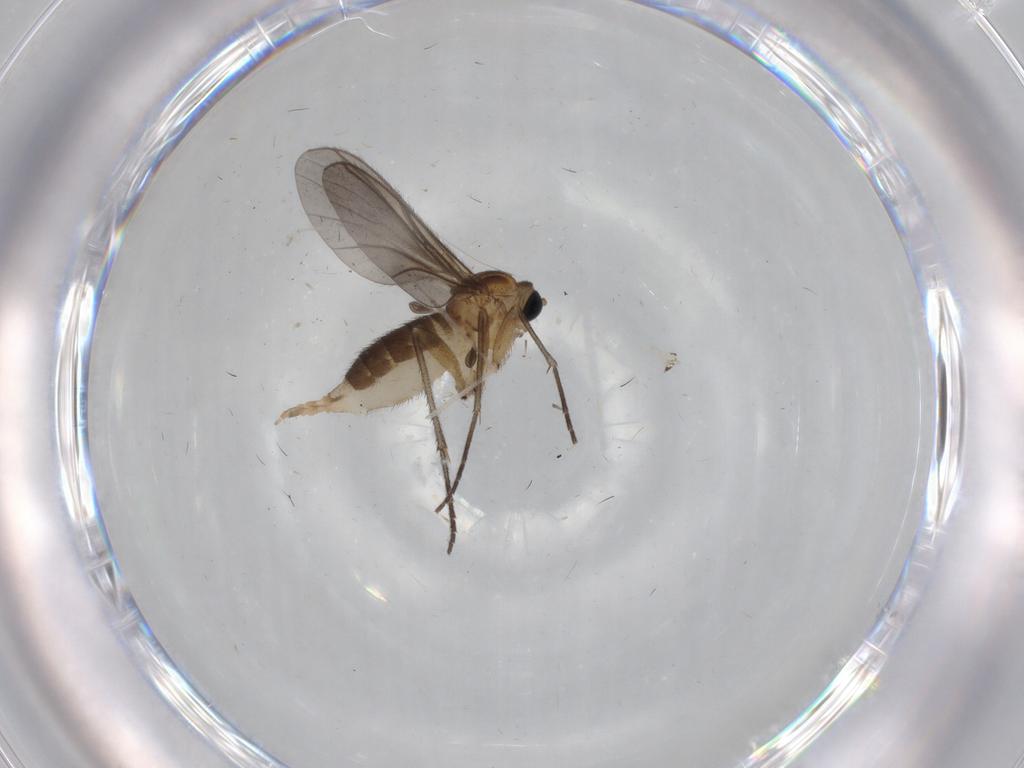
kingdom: Animalia
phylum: Arthropoda
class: Insecta
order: Diptera
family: Sciaridae
